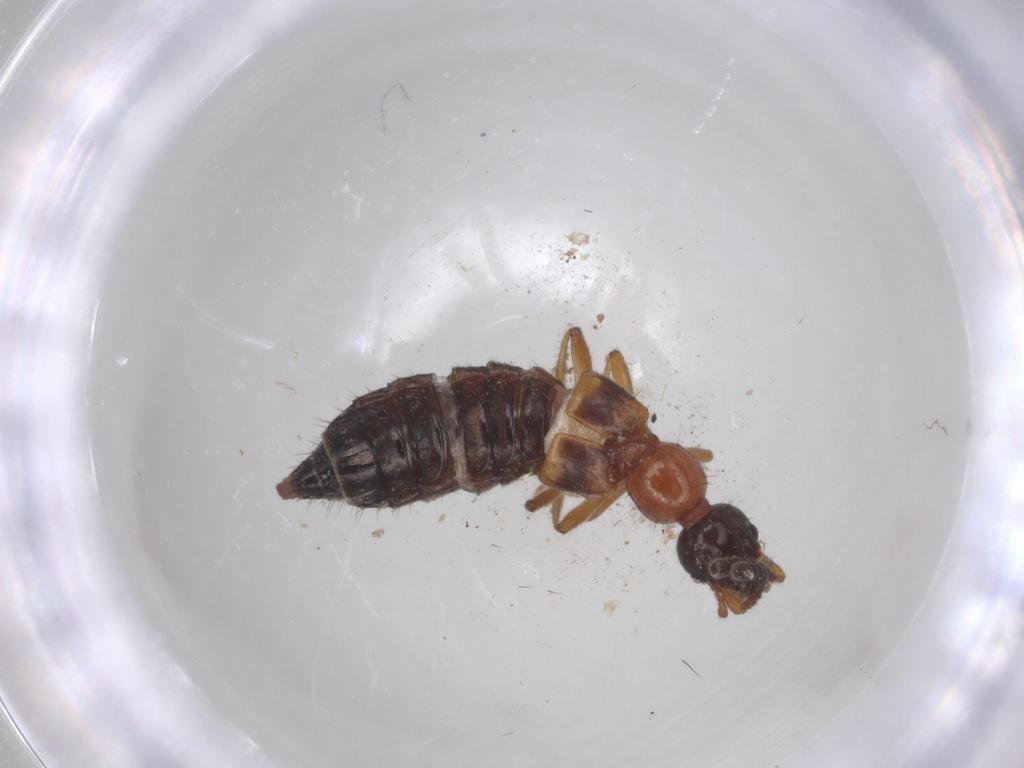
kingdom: Animalia
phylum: Arthropoda
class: Insecta
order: Coleoptera
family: Staphylinidae
